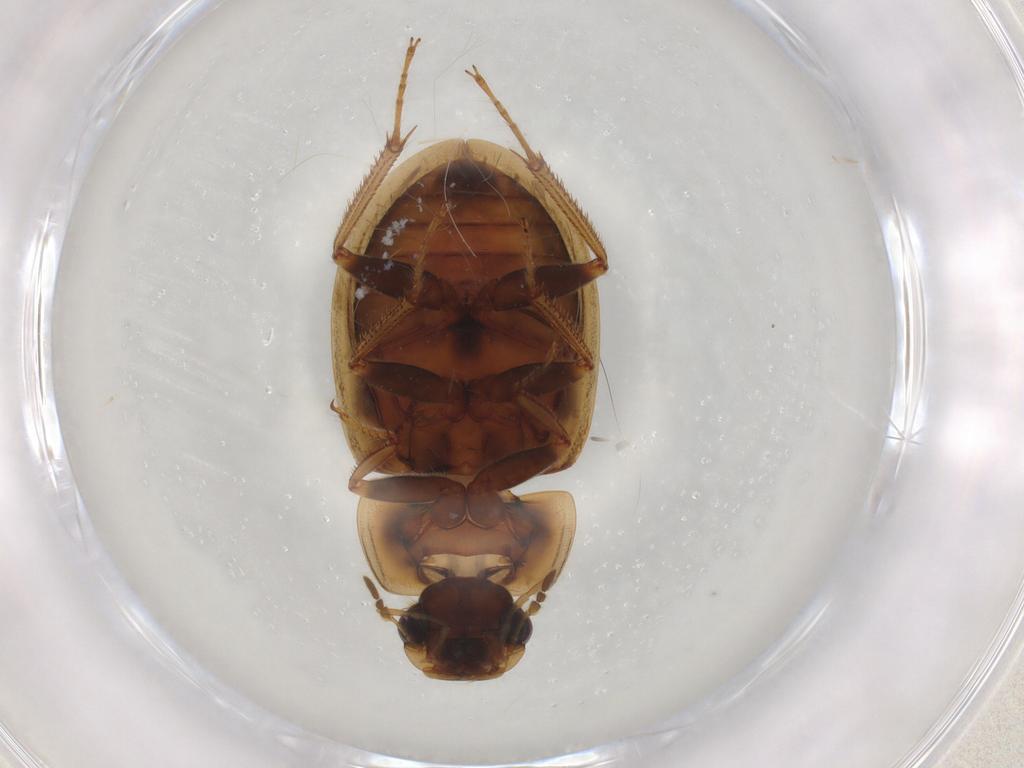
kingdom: Animalia
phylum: Arthropoda
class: Insecta
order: Coleoptera
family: Hydrophilidae
